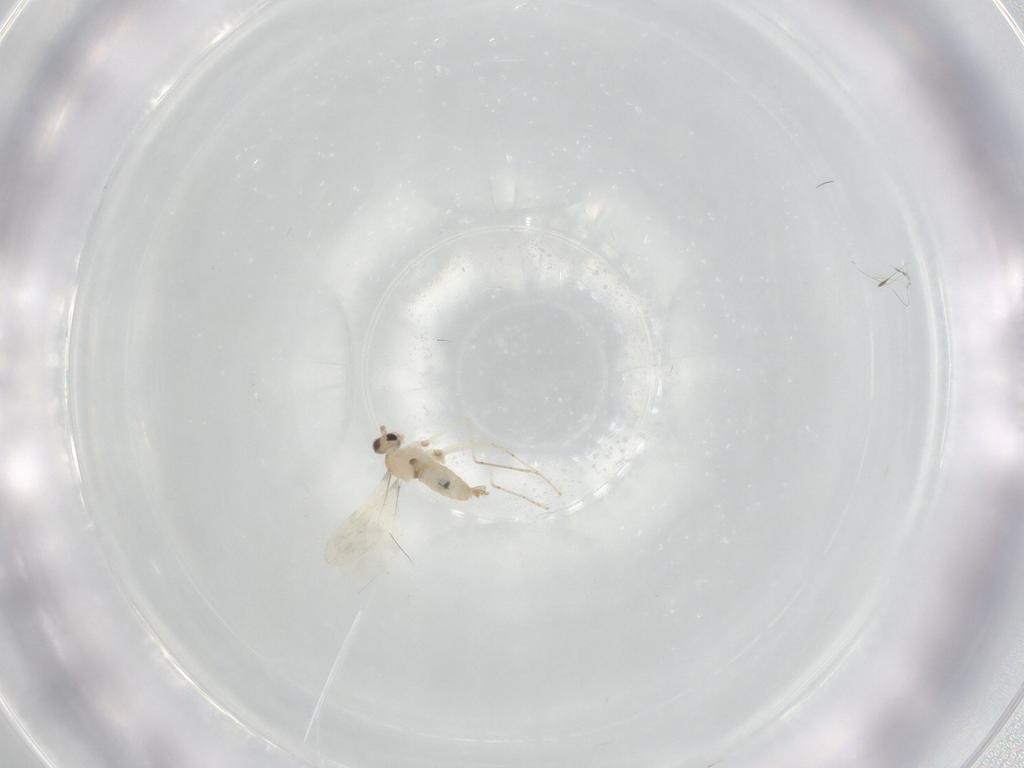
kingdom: Animalia
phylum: Arthropoda
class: Insecta
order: Diptera
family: Cecidomyiidae
